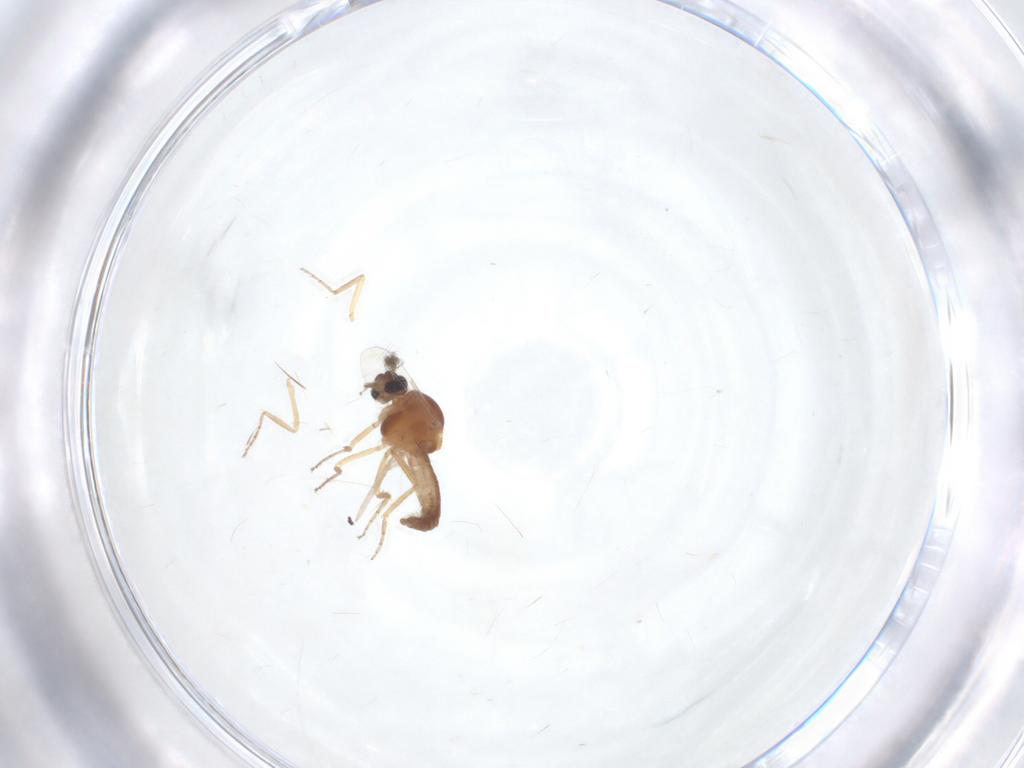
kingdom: Animalia
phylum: Arthropoda
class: Insecta
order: Diptera
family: Ceratopogonidae
